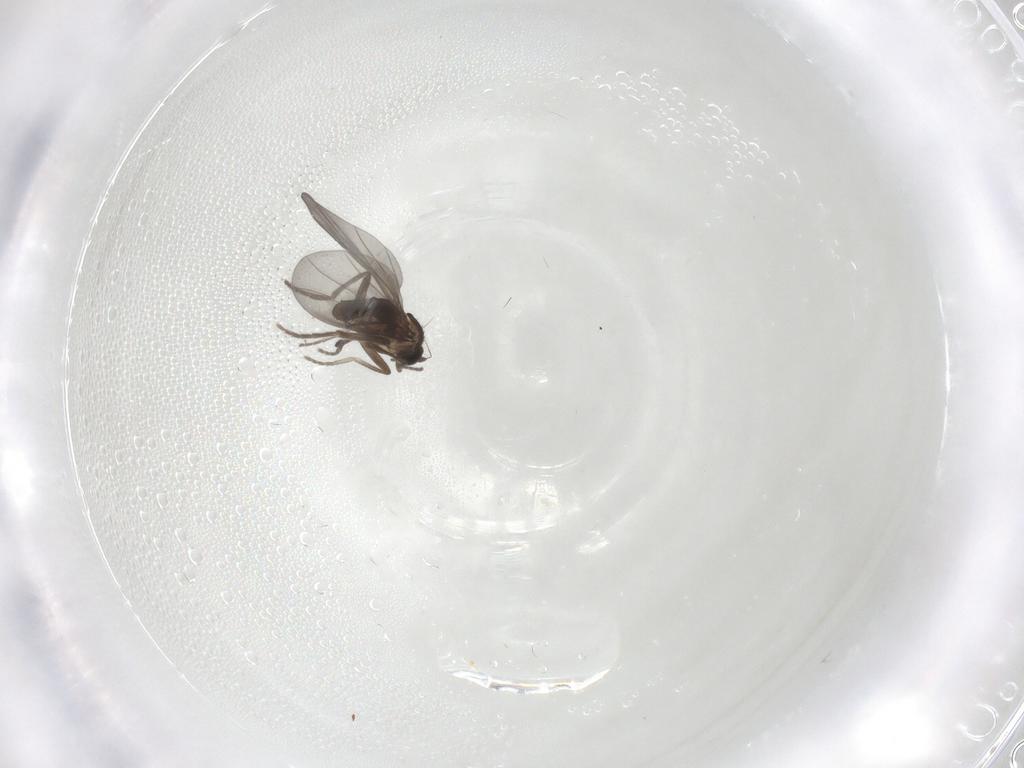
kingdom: Animalia
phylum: Arthropoda
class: Insecta
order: Diptera
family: Phoridae
